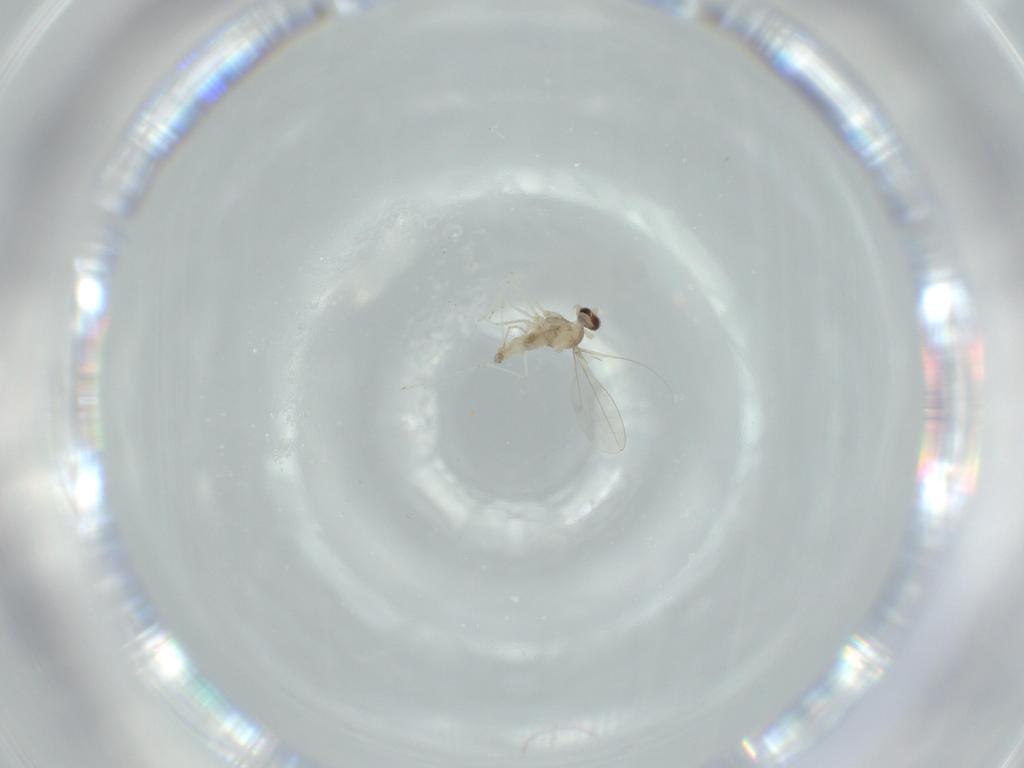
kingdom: Animalia
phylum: Arthropoda
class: Insecta
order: Diptera
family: Cecidomyiidae
